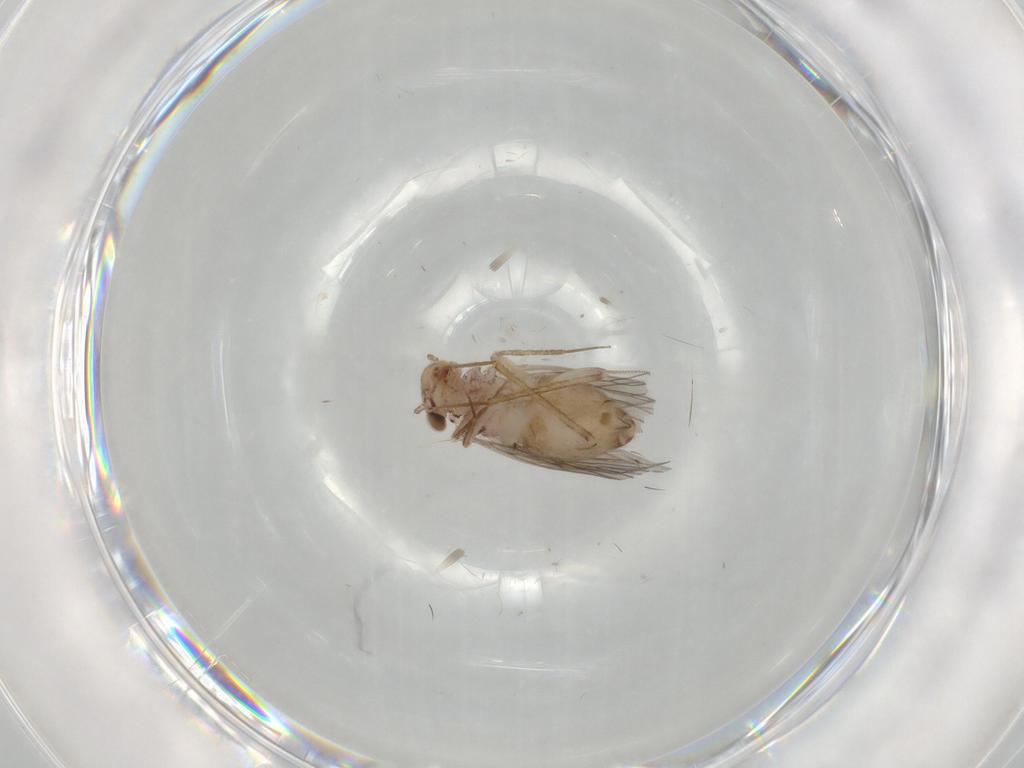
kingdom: Animalia
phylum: Arthropoda
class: Insecta
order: Psocodea
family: Lepidopsocidae
